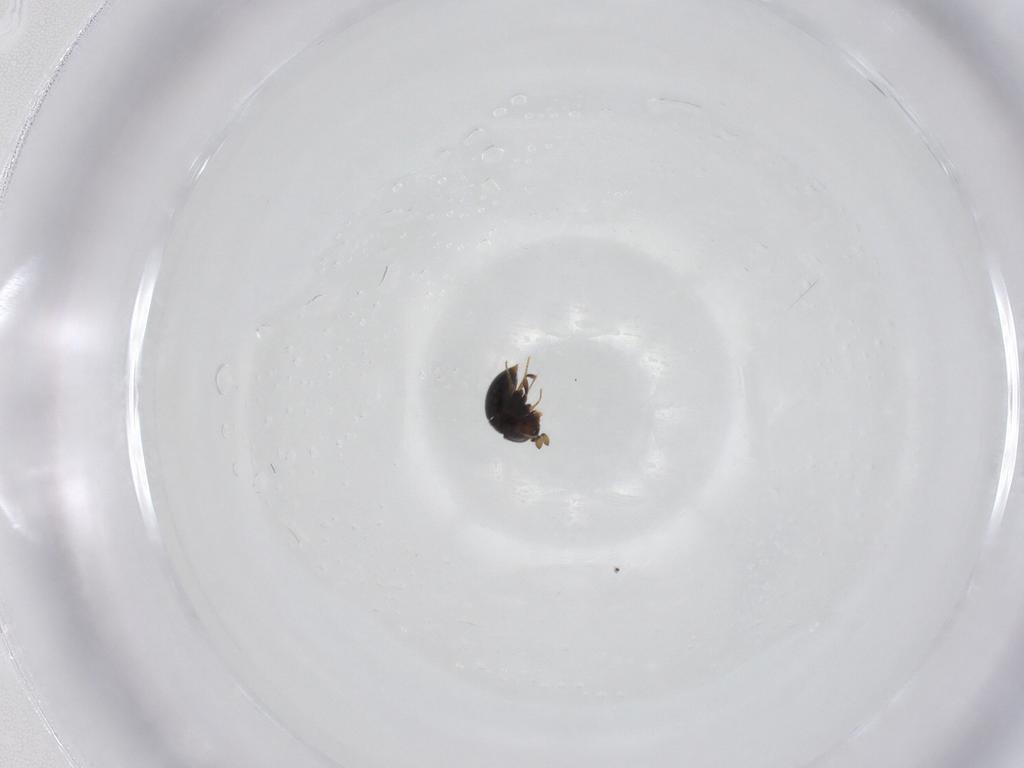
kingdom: Animalia
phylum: Arthropoda
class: Insecta
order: Hymenoptera
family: Scelionidae
